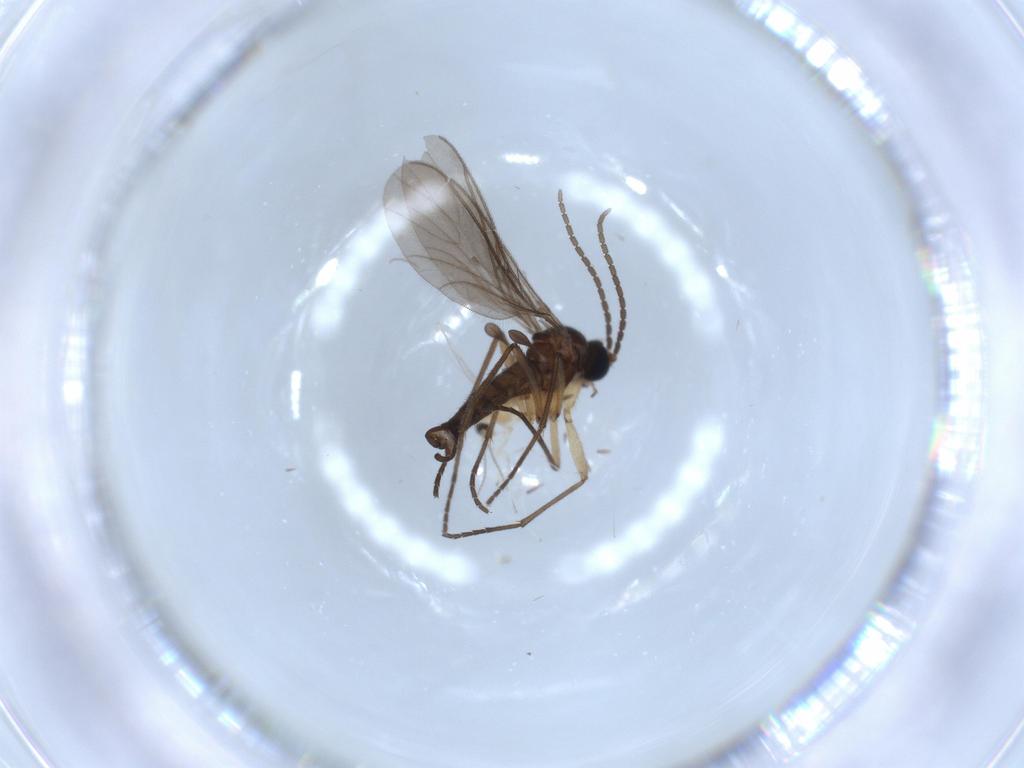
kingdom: Animalia
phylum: Arthropoda
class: Insecta
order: Diptera
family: Cecidomyiidae
